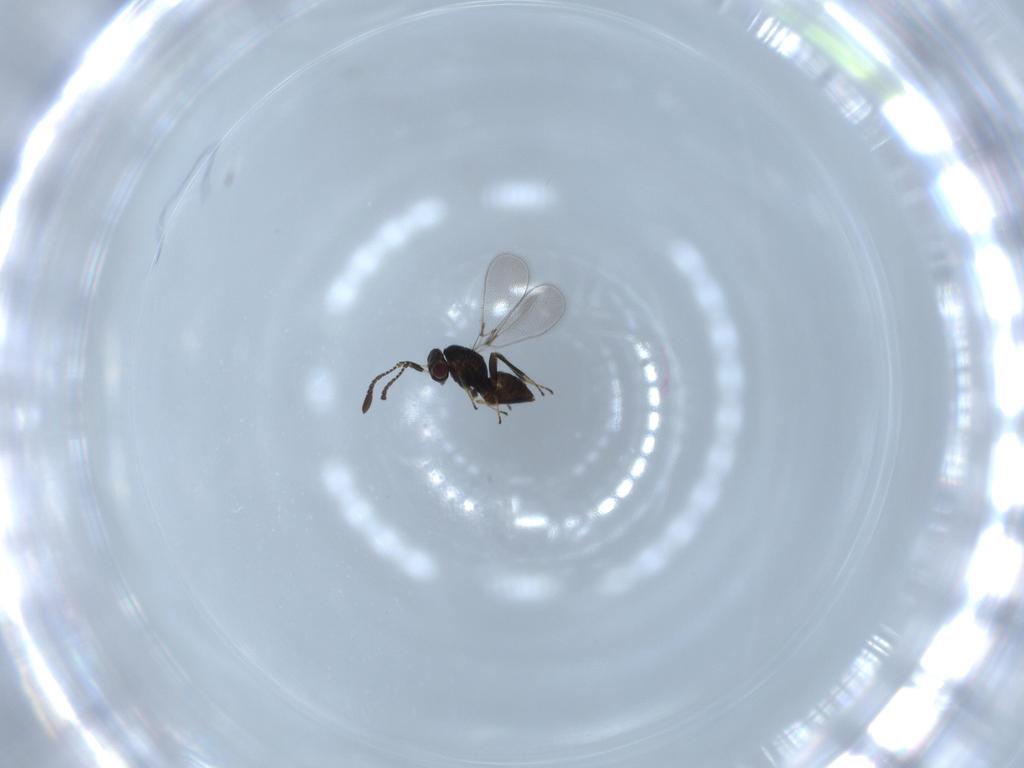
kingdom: Animalia
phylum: Arthropoda
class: Insecta
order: Hymenoptera
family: Mymaridae
